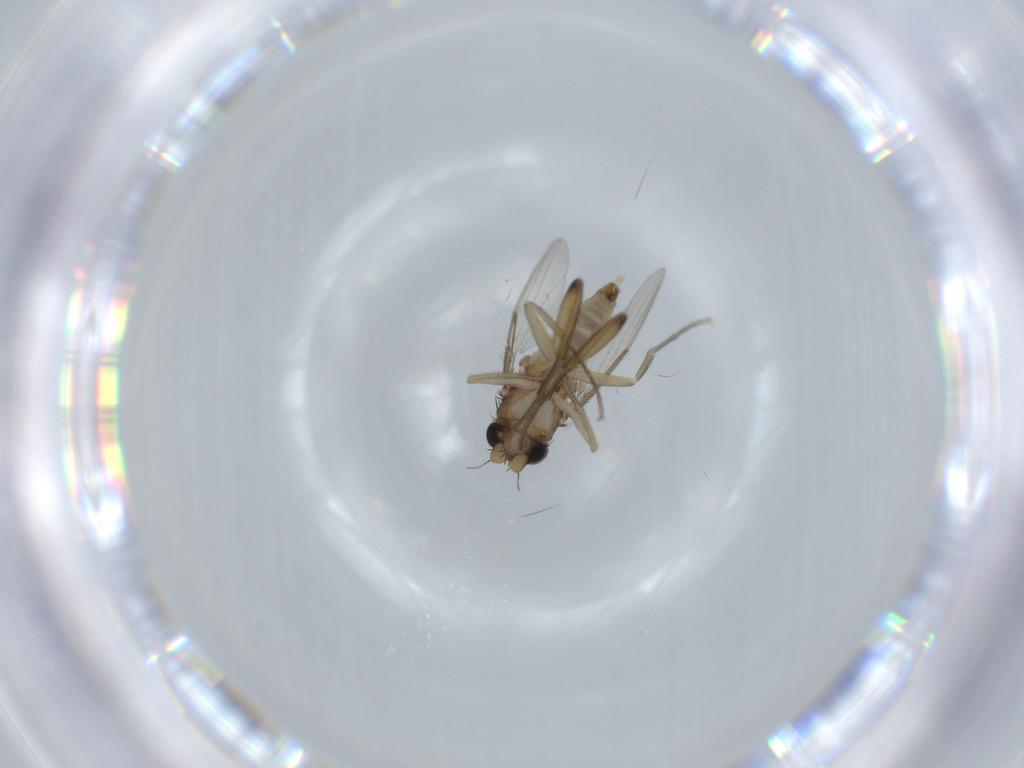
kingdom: Animalia
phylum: Arthropoda
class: Insecta
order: Diptera
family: Phoridae
